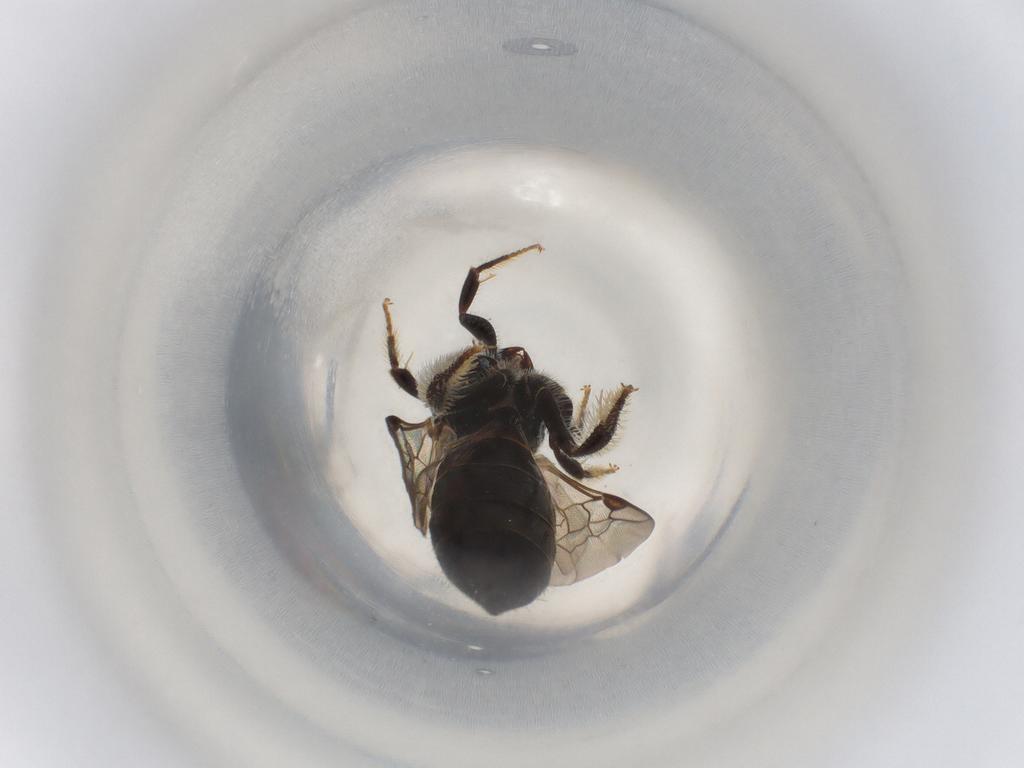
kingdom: Animalia
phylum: Arthropoda
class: Insecta
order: Hymenoptera
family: Apidae
